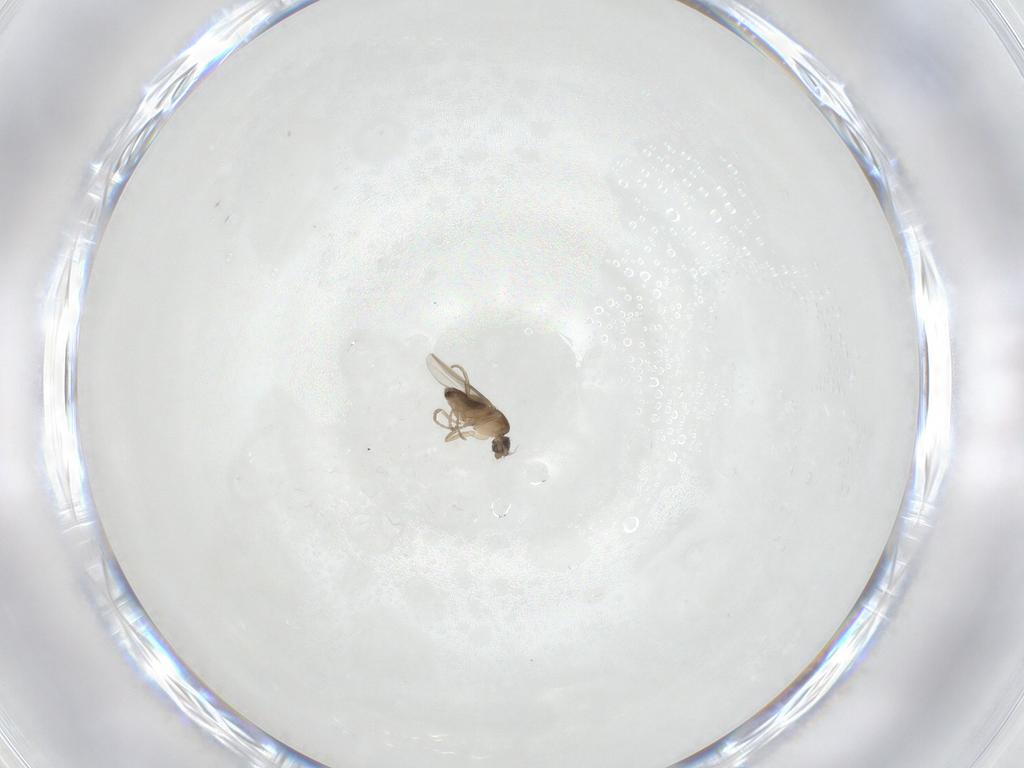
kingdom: Animalia
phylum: Arthropoda
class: Insecta
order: Diptera
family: Phoridae
